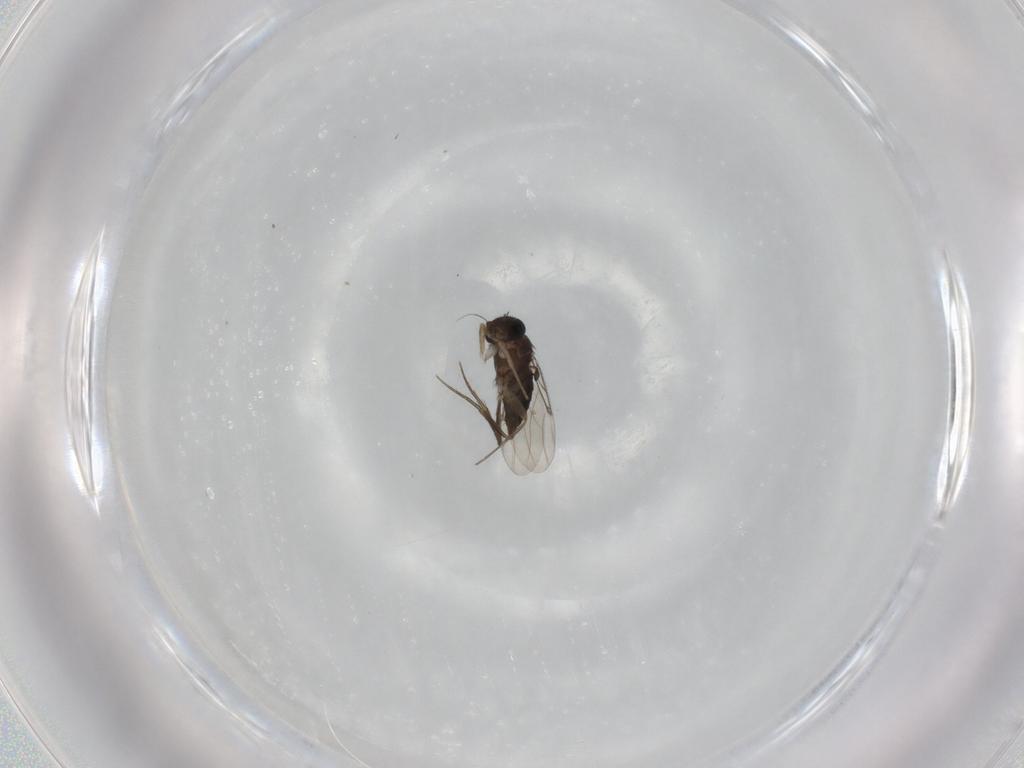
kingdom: Animalia
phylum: Arthropoda
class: Insecta
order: Diptera
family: Phoridae
